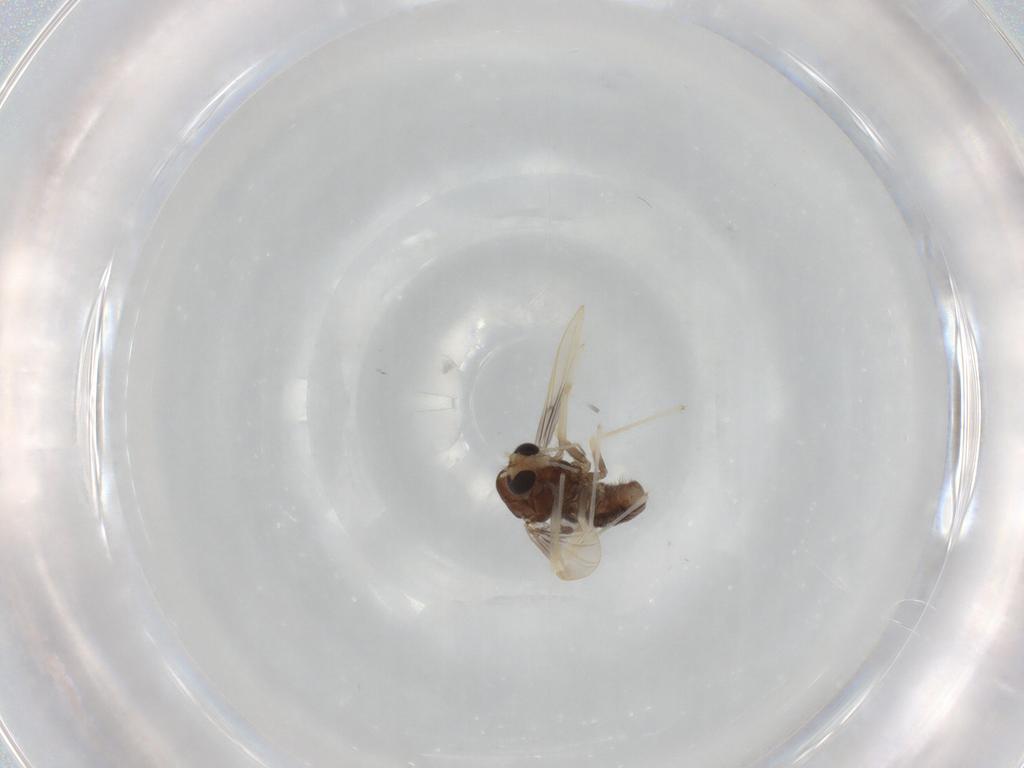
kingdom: Animalia
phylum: Arthropoda
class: Insecta
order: Diptera
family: Chironomidae
